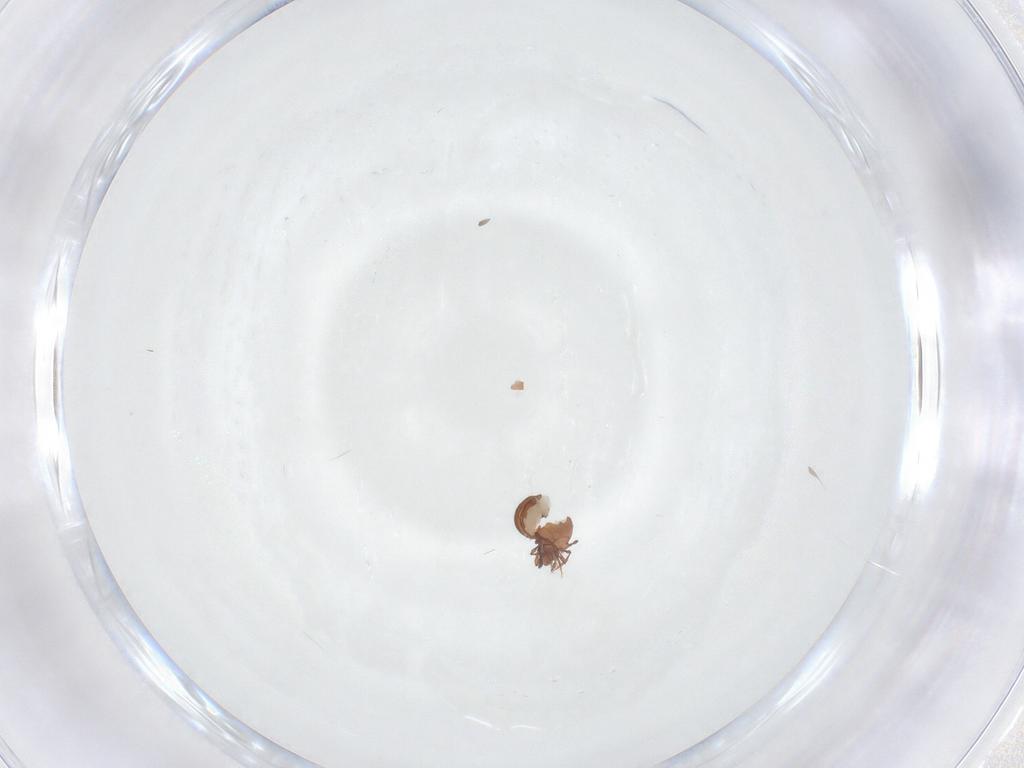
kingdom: Animalia
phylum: Arthropoda
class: Arachnida
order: Sarcoptiformes
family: Oppiidae
